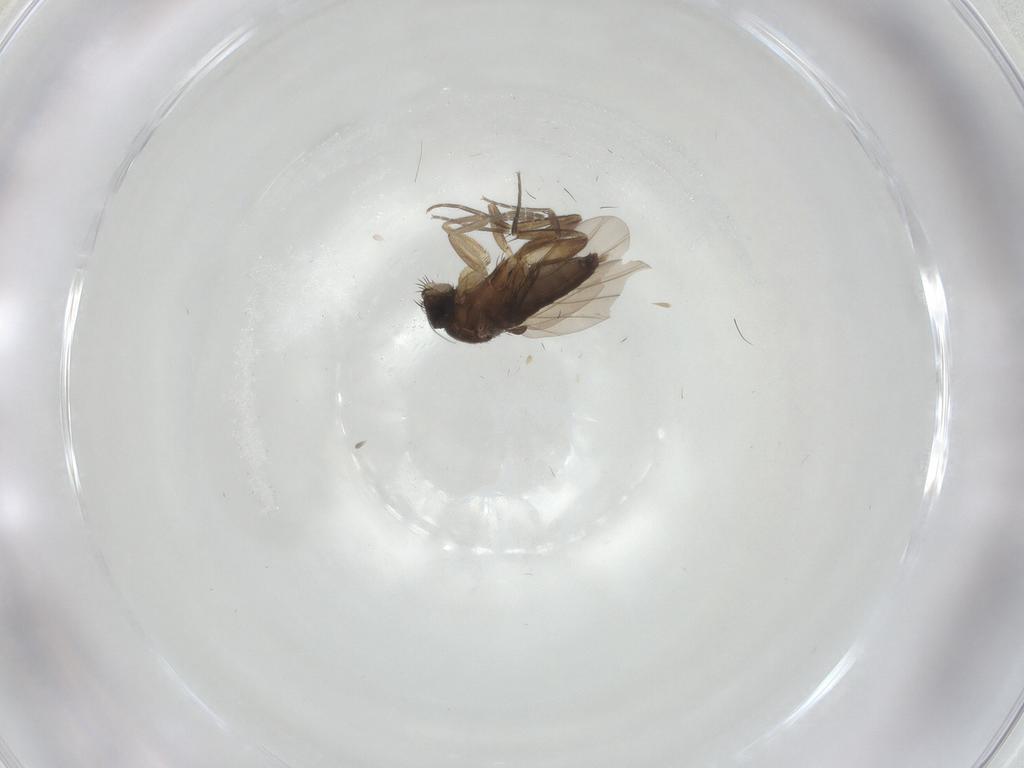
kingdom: Animalia
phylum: Arthropoda
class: Insecta
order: Diptera
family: Phoridae
